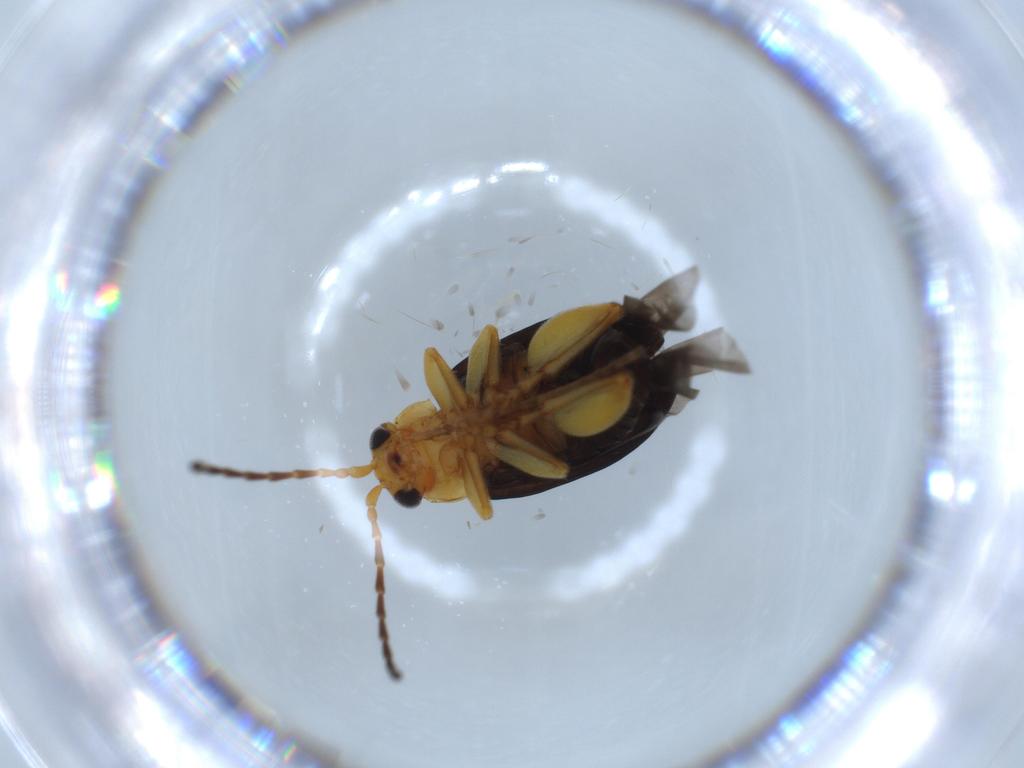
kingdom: Animalia
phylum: Arthropoda
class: Insecta
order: Coleoptera
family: Chrysomelidae
